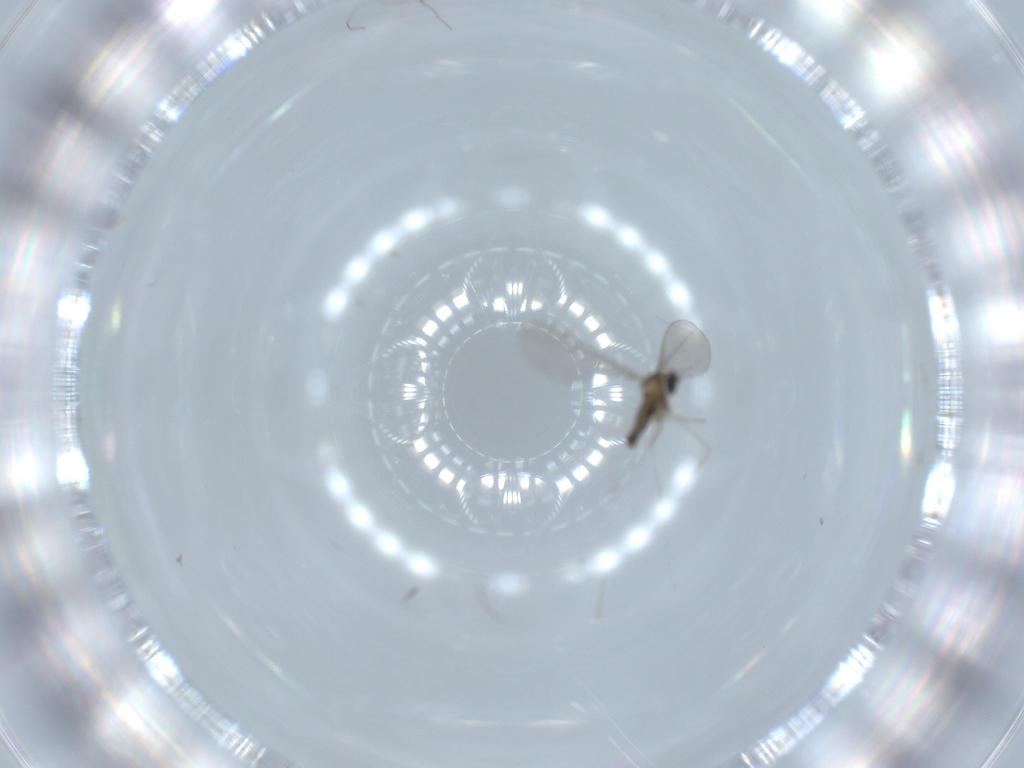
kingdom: Animalia
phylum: Arthropoda
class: Insecta
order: Diptera
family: Cecidomyiidae
